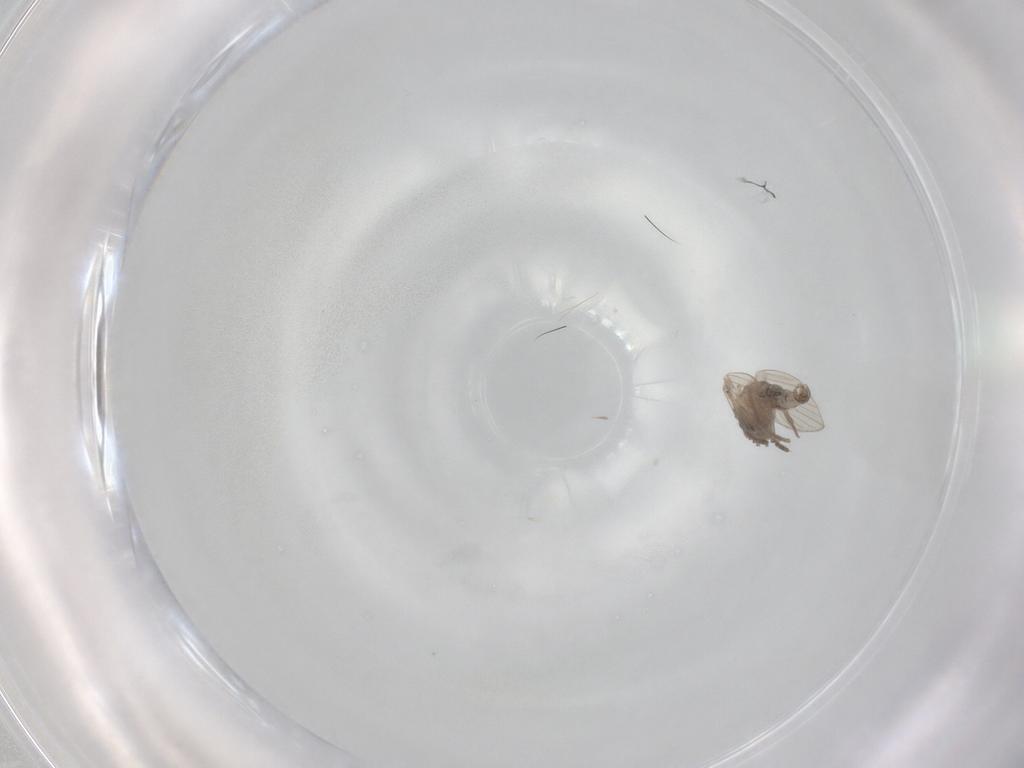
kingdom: Animalia
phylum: Arthropoda
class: Insecta
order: Diptera
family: Psychodidae
